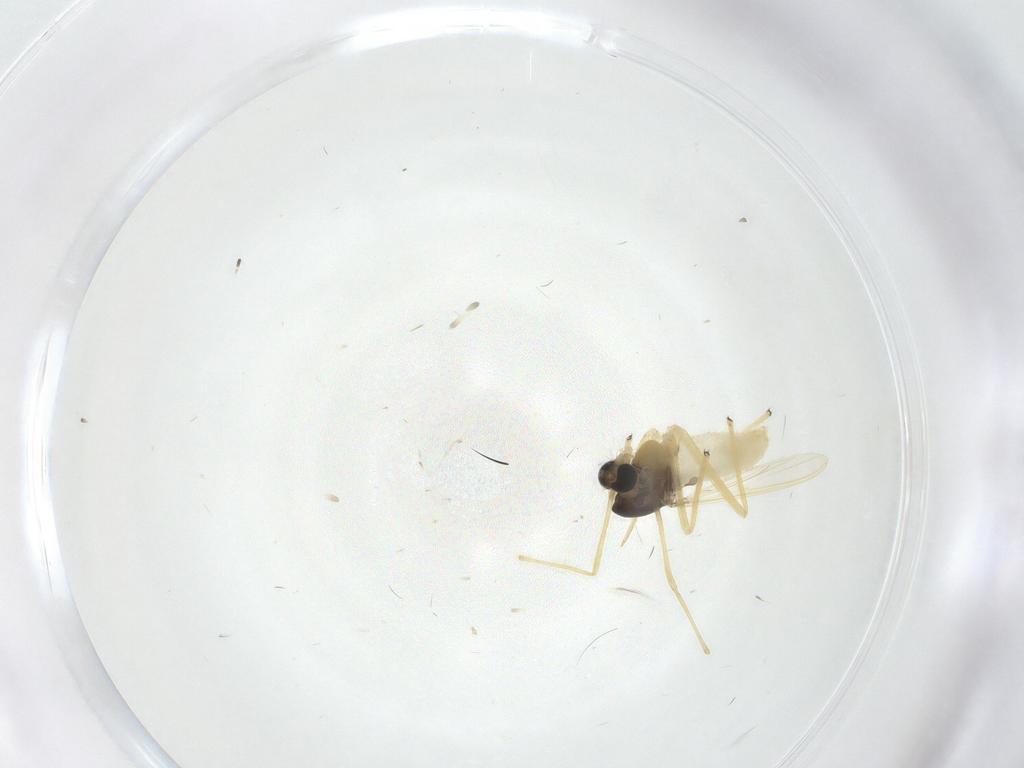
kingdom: Animalia
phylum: Arthropoda
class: Insecta
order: Diptera
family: Chironomidae
